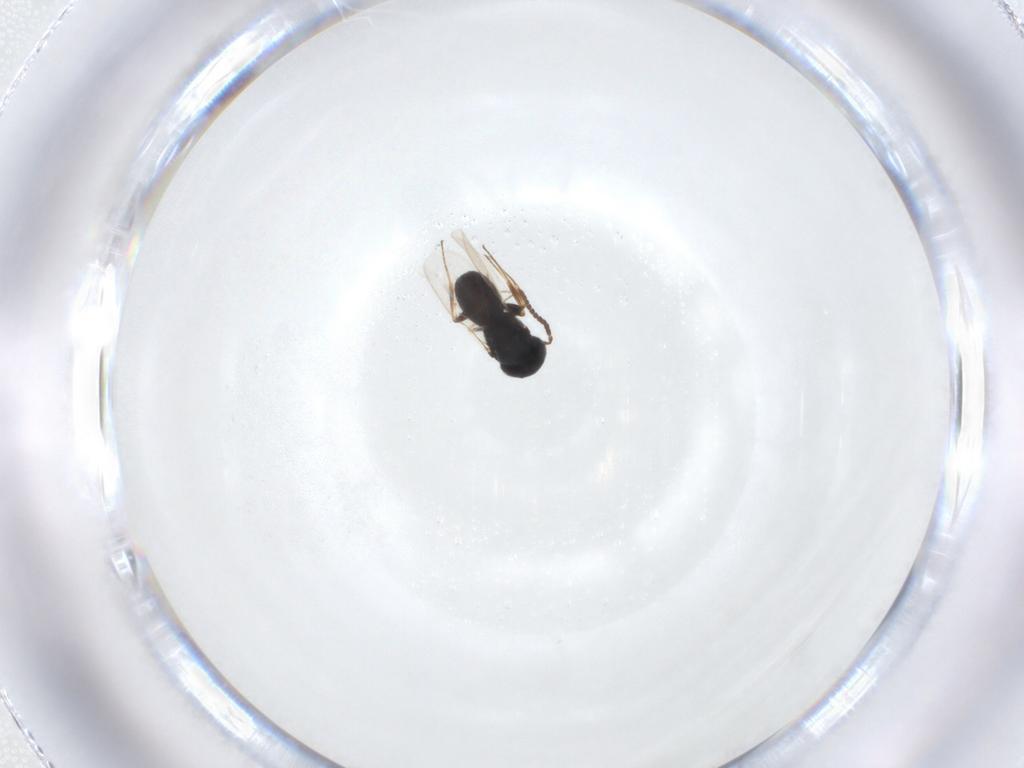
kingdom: Animalia
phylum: Arthropoda
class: Insecta
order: Hymenoptera
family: Scelionidae
